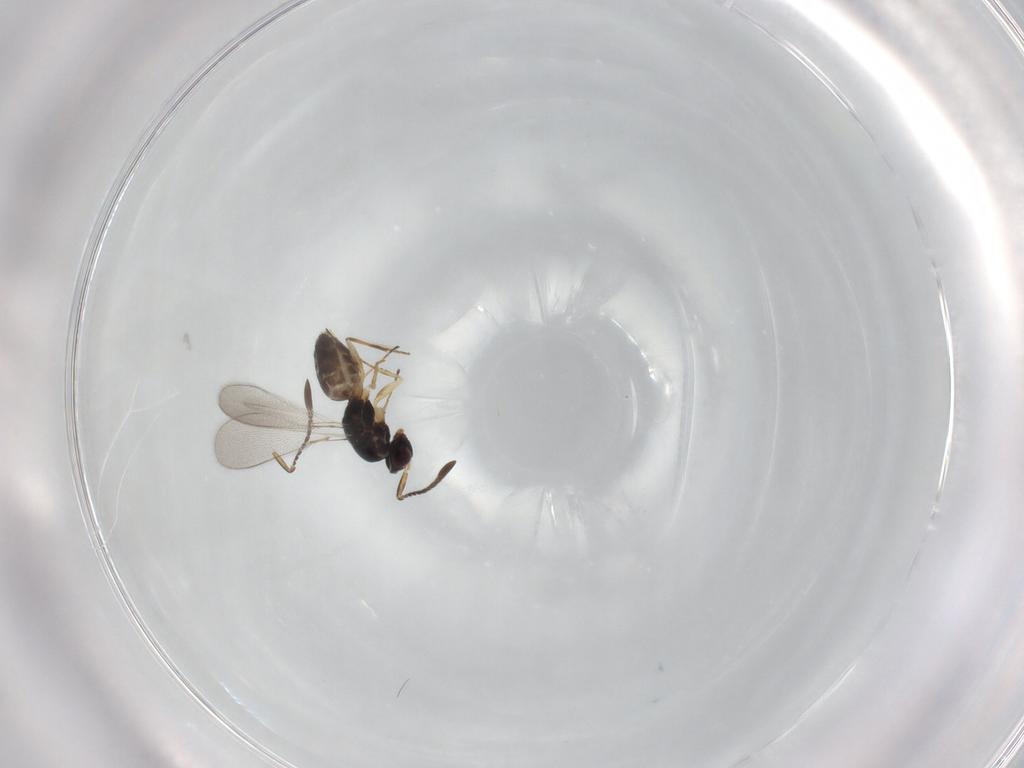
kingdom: Animalia
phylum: Arthropoda
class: Insecta
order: Hymenoptera
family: Mymaridae
